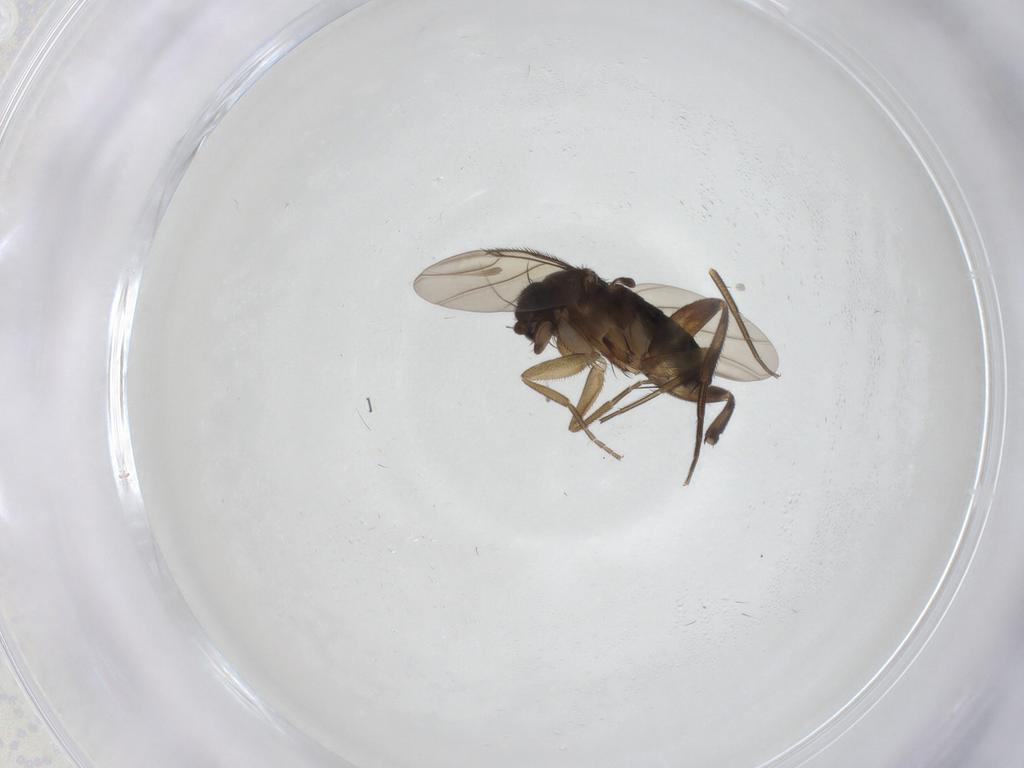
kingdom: Animalia
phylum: Arthropoda
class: Insecta
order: Diptera
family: Phoridae
